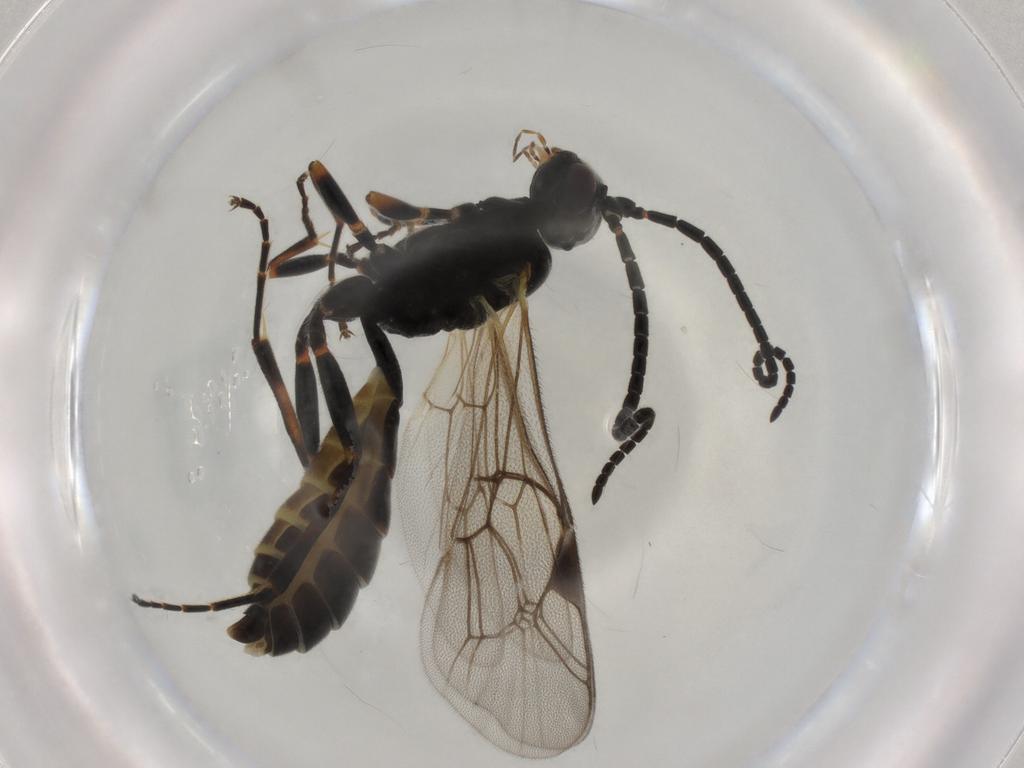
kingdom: Animalia
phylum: Arthropoda
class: Insecta
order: Hymenoptera
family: Ichneumonidae
